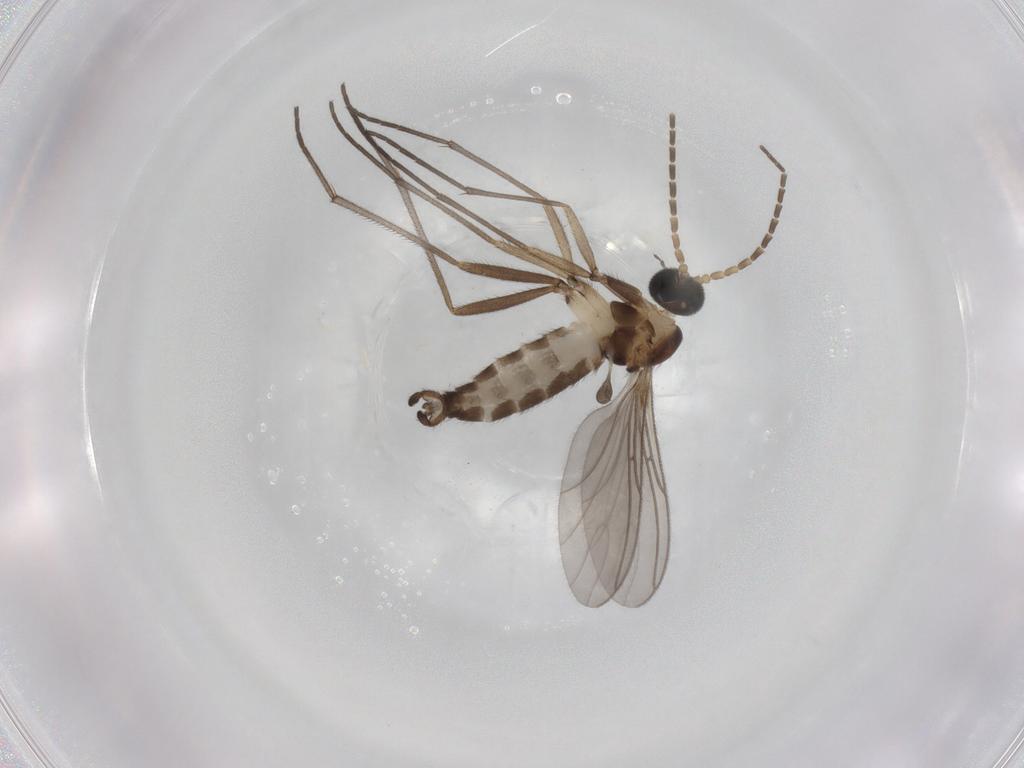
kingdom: Animalia
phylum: Arthropoda
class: Insecta
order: Diptera
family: Sciaridae
